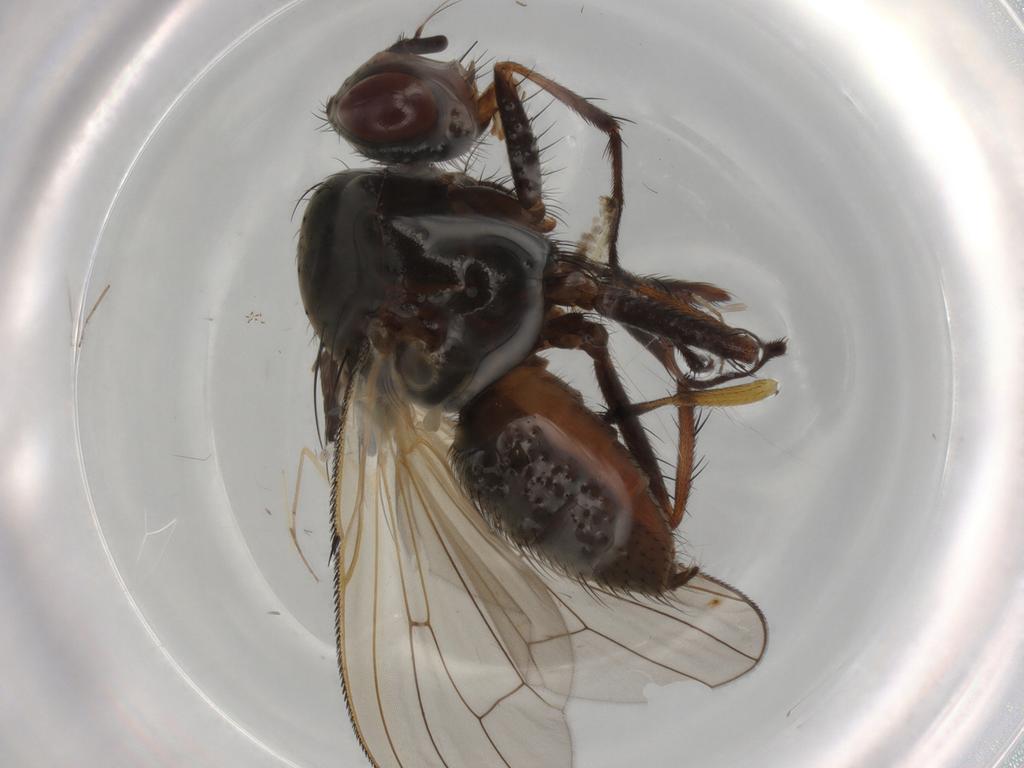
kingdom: Animalia
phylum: Arthropoda
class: Insecta
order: Diptera
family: Anthomyiidae
